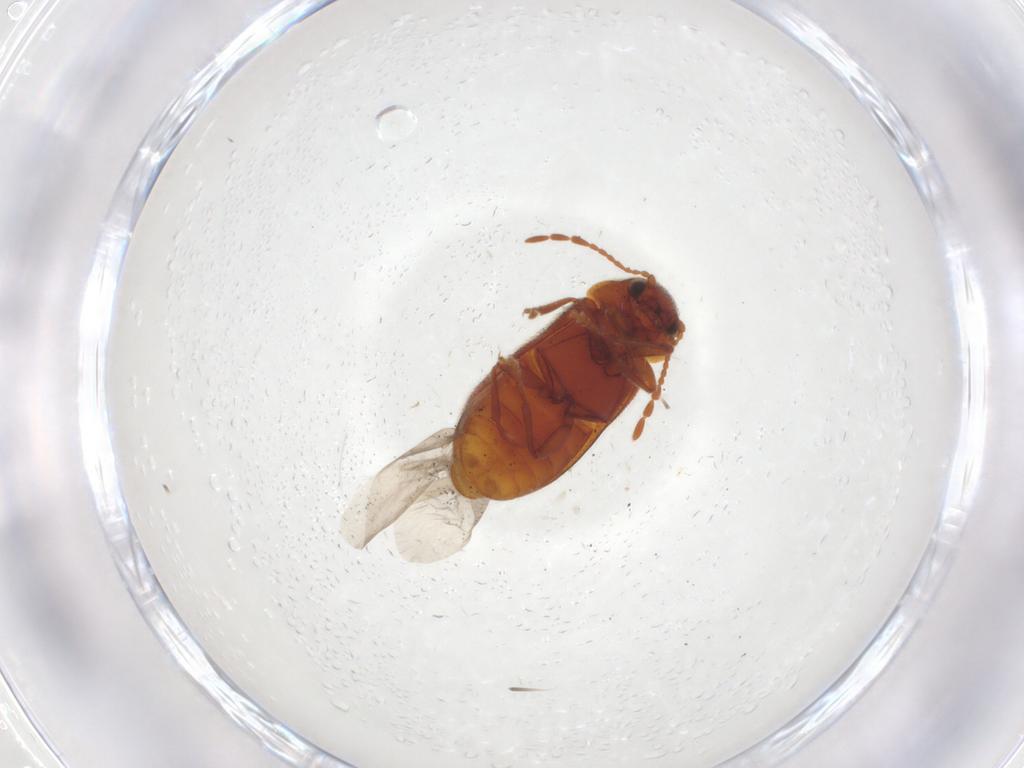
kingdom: Animalia
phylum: Arthropoda
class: Insecta
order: Coleoptera
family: Ptinidae
